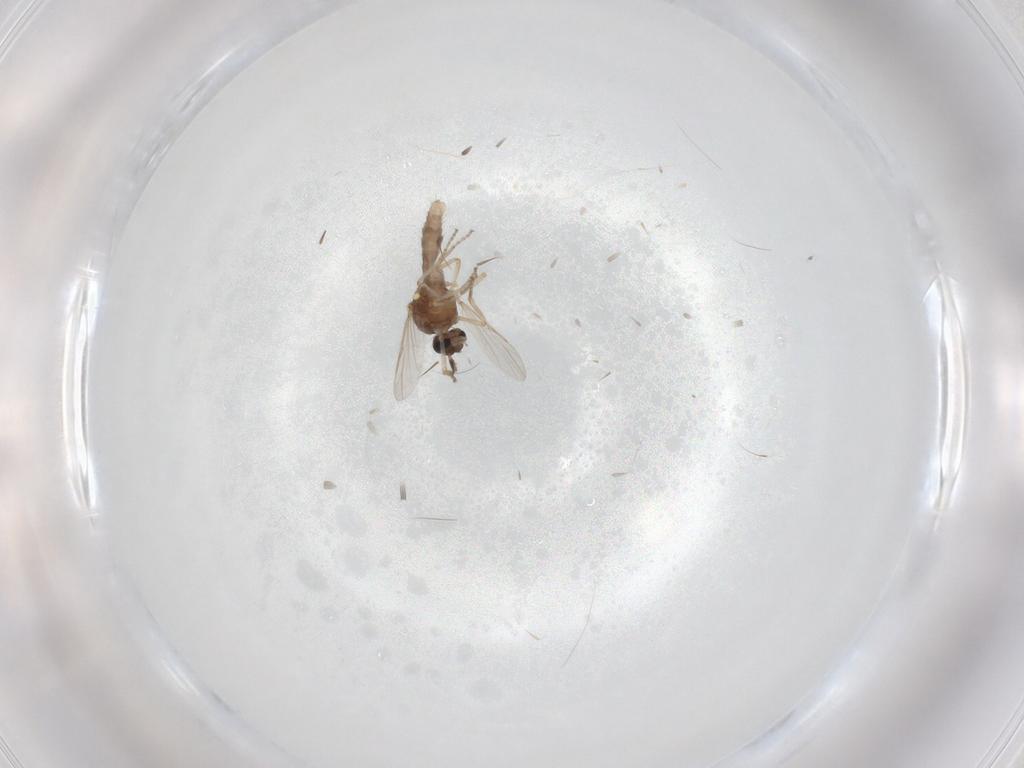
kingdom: Animalia
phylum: Arthropoda
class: Insecta
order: Diptera
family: Ceratopogonidae
